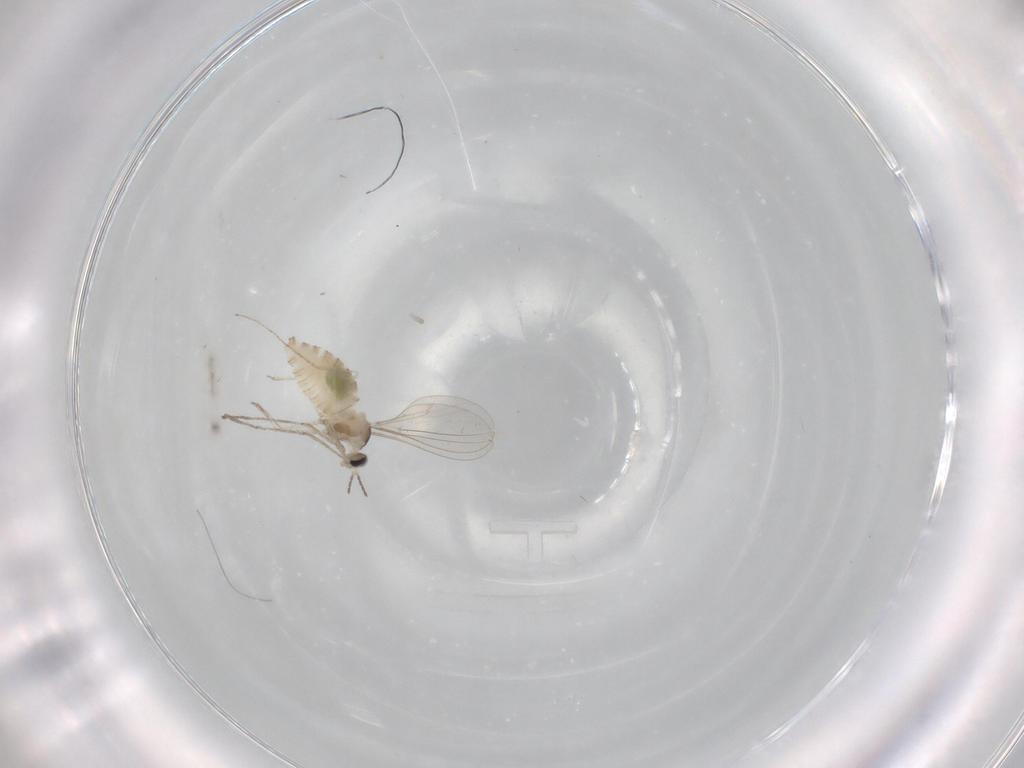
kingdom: Animalia
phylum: Arthropoda
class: Insecta
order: Diptera
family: Cecidomyiidae
